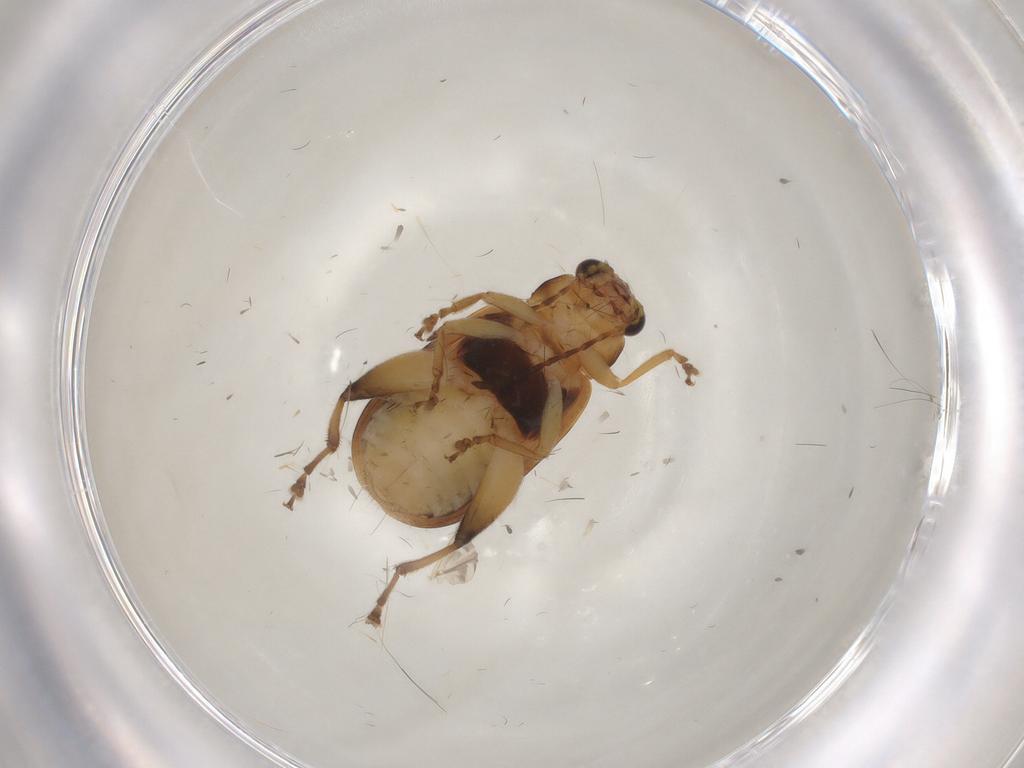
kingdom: Animalia
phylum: Arthropoda
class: Insecta
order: Coleoptera
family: Chrysomelidae
